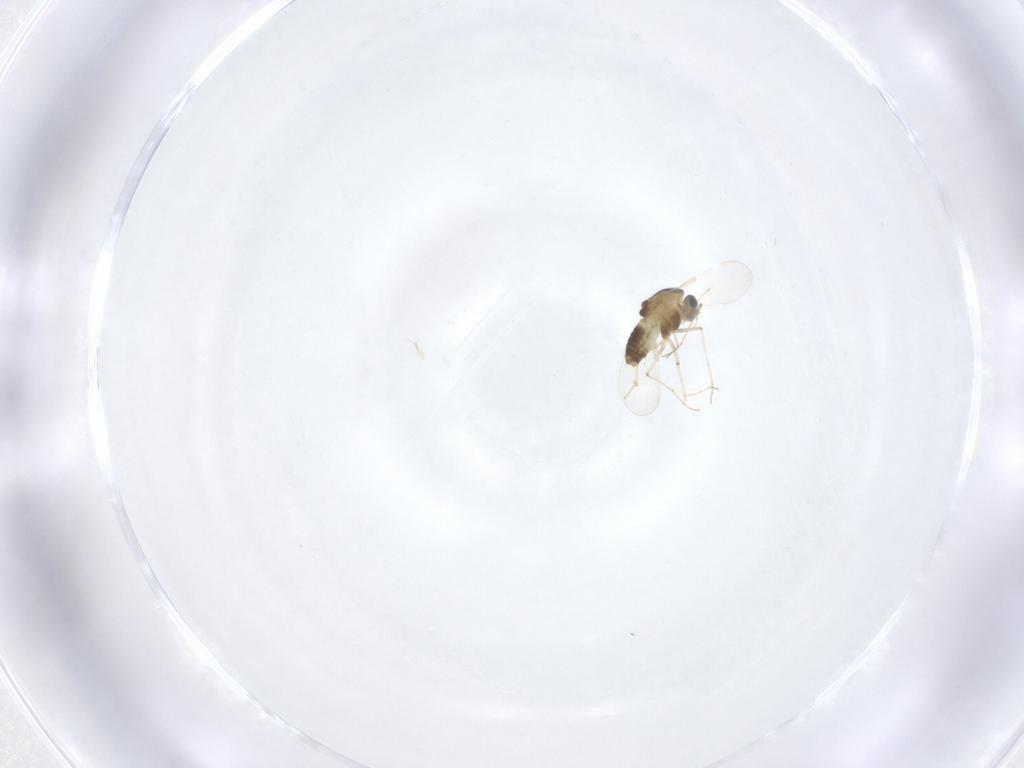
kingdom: Animalia
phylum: Arthropoda
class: Insecta
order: Diptera
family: Chironomidae
